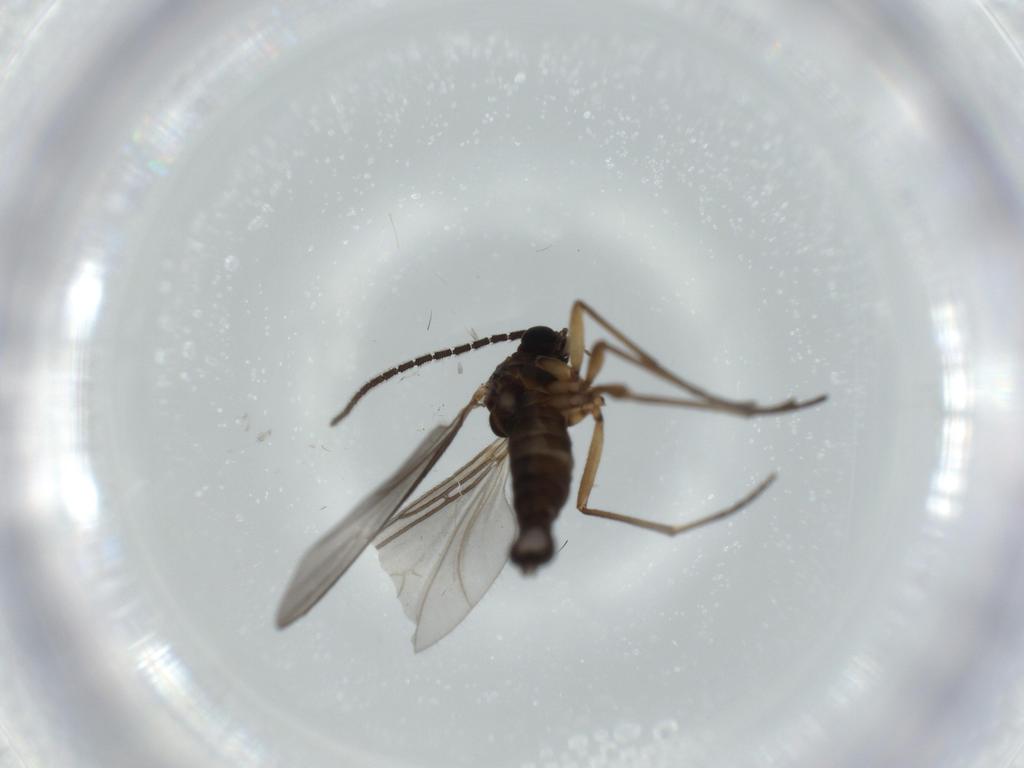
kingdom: Animalia
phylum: Arthropoda
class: Insecta
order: Diptera
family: Sciaridae
